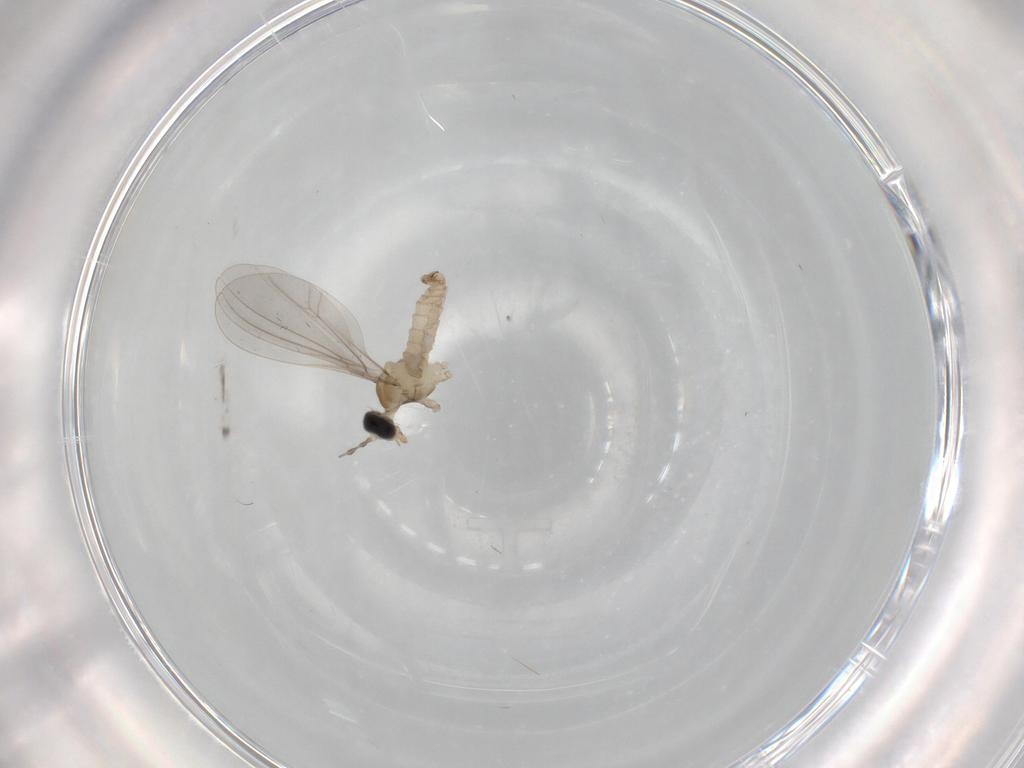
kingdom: Animalia
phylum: Arthropoda
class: Insecta
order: Diptera
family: Cecidomyiidae
